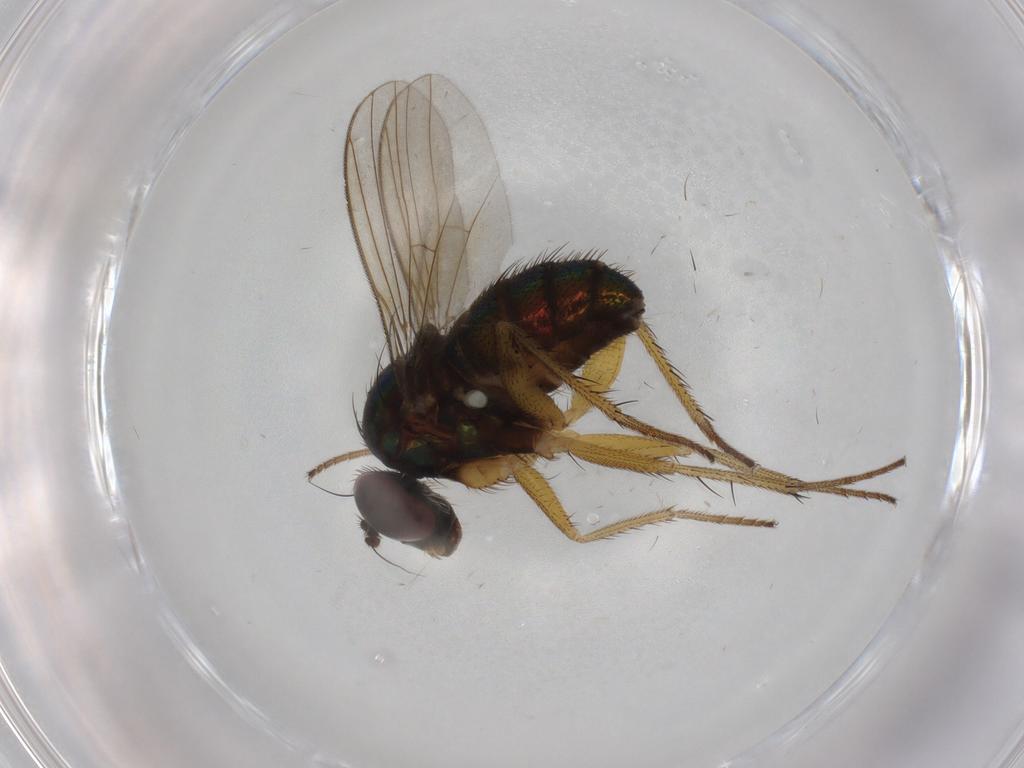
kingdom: Animalia
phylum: Arthropoda
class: Insecta
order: Diptera
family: Dolichopodidae
